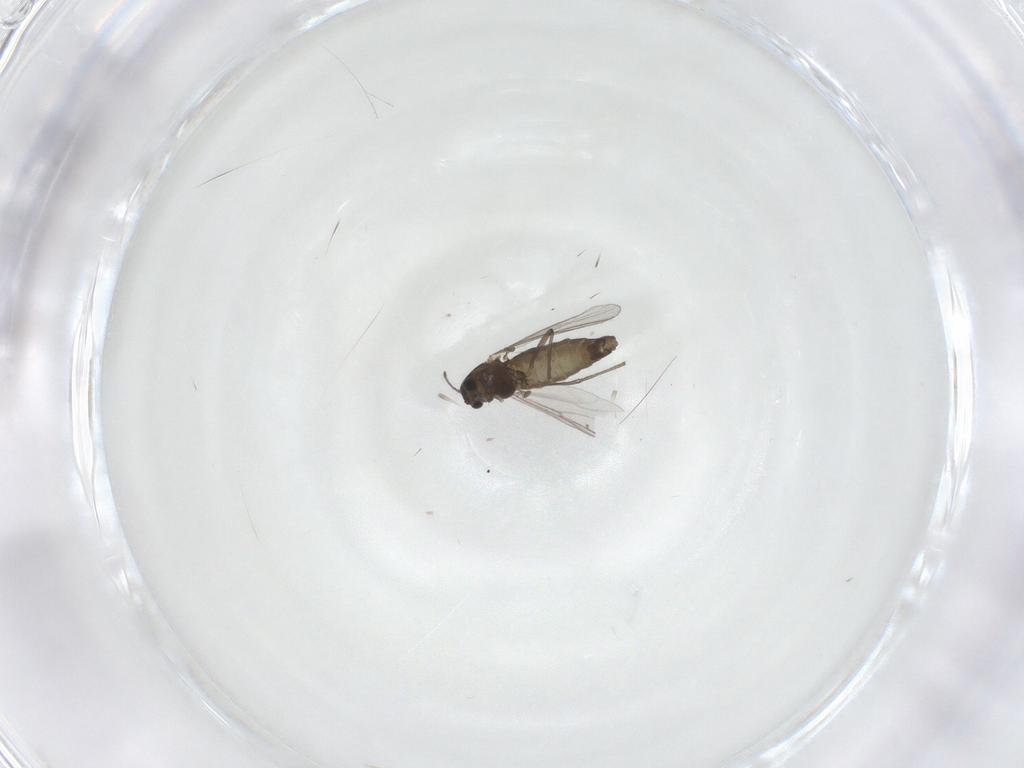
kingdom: Animalia
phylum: Arthropoda
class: Insecta
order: Diptera
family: Chironomidae
